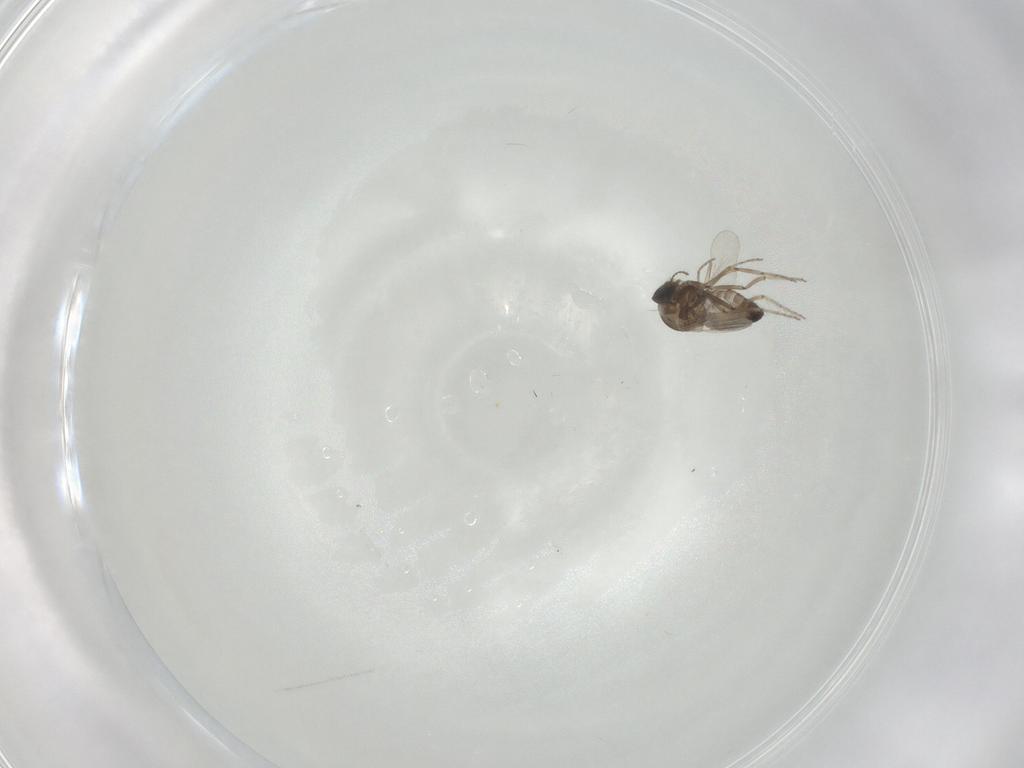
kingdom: Animalia
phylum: Arthropoda
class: Insecta
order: Diptera
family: Ceratopogonidae
